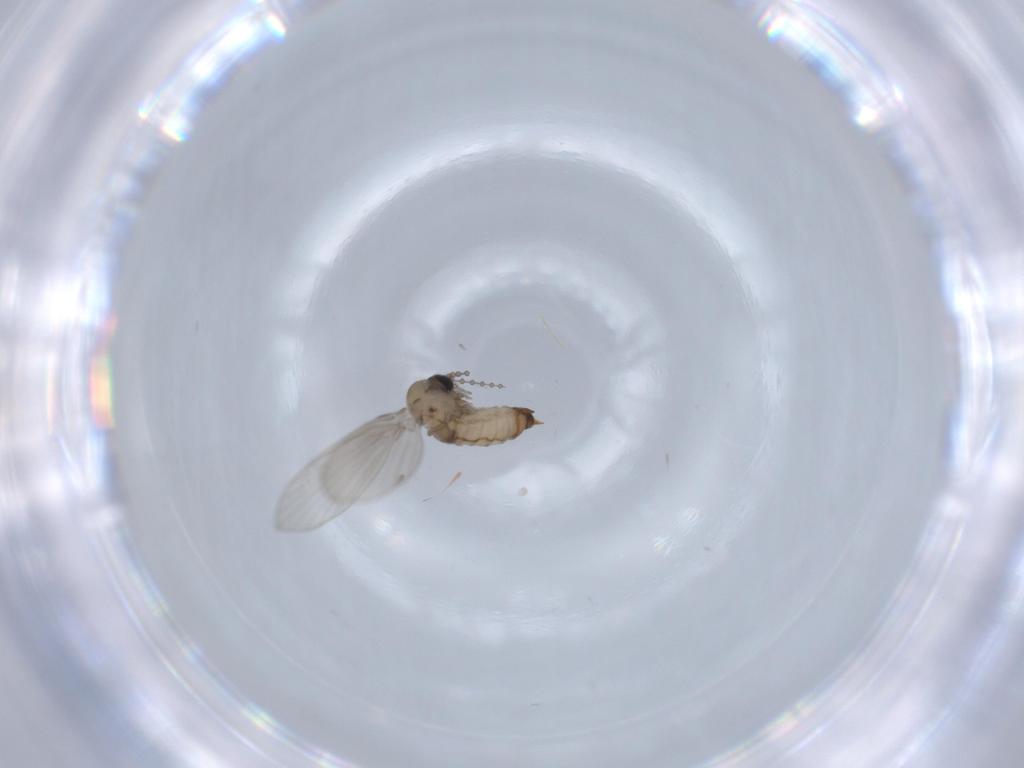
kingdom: Animalia
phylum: Arthropoda
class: Insecta
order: Diptera
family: Psychodidae
